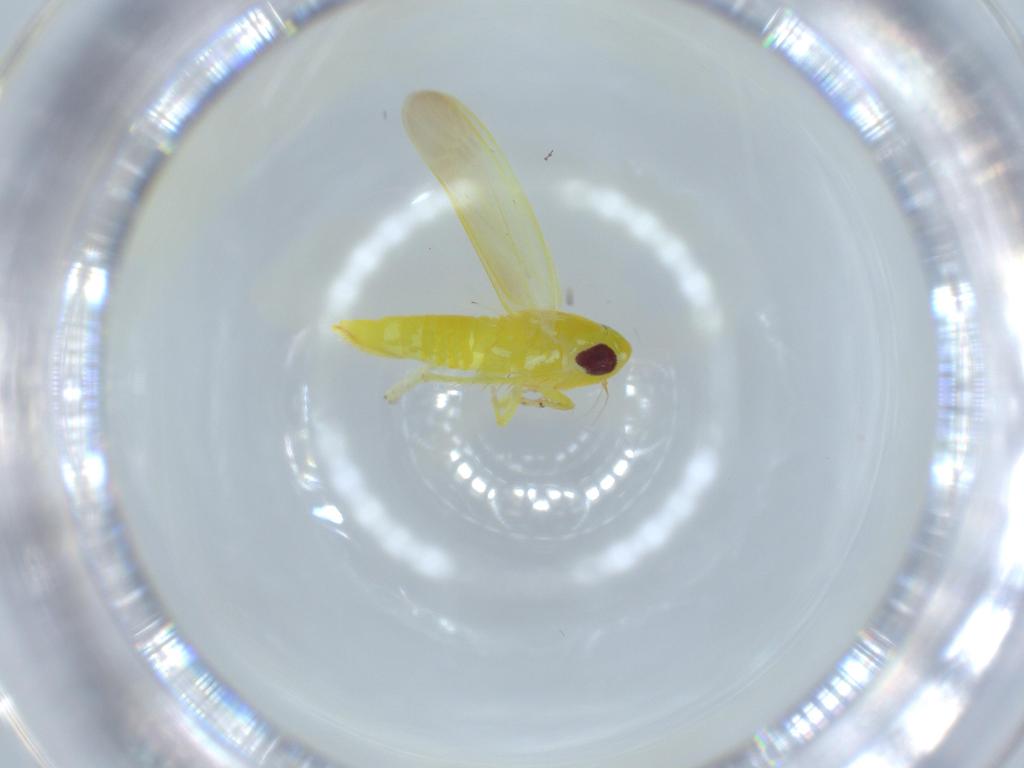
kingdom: Animalia
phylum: Arthropoda
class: Insecta
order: Hemiptera
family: Cicadellidae
